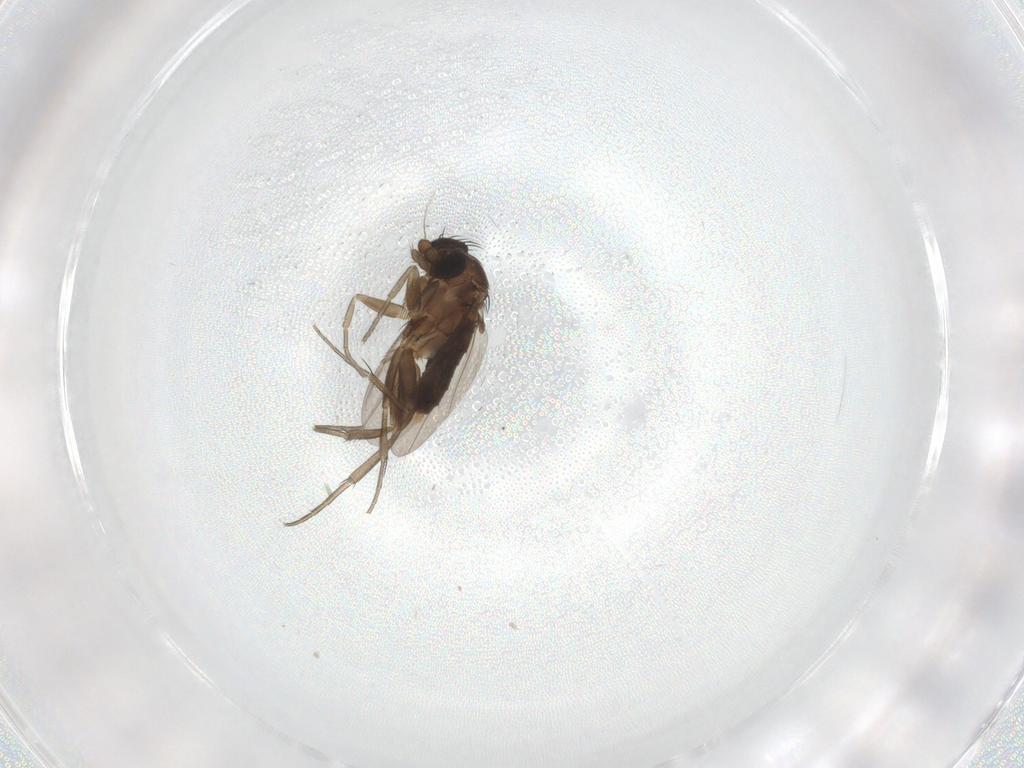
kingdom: Animalia
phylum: Arthropoda
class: Insecta
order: Diptera
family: Phoridae
